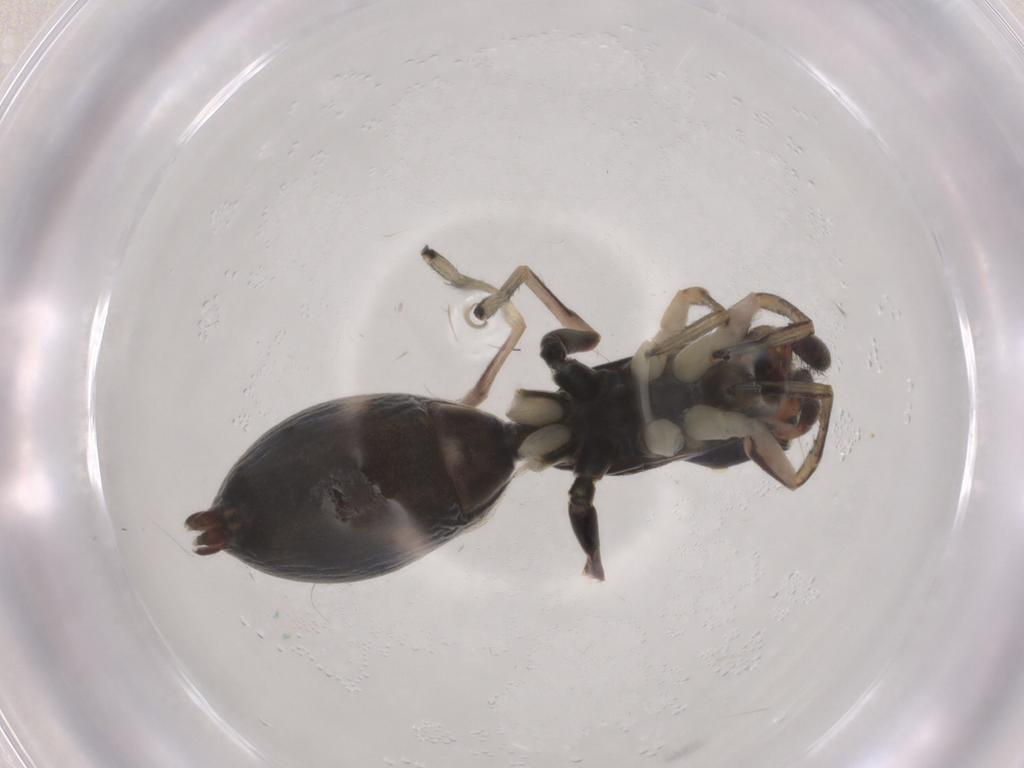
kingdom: Animalia
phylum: Arthropoda
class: Arachnida
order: Araneae
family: Salticidae
